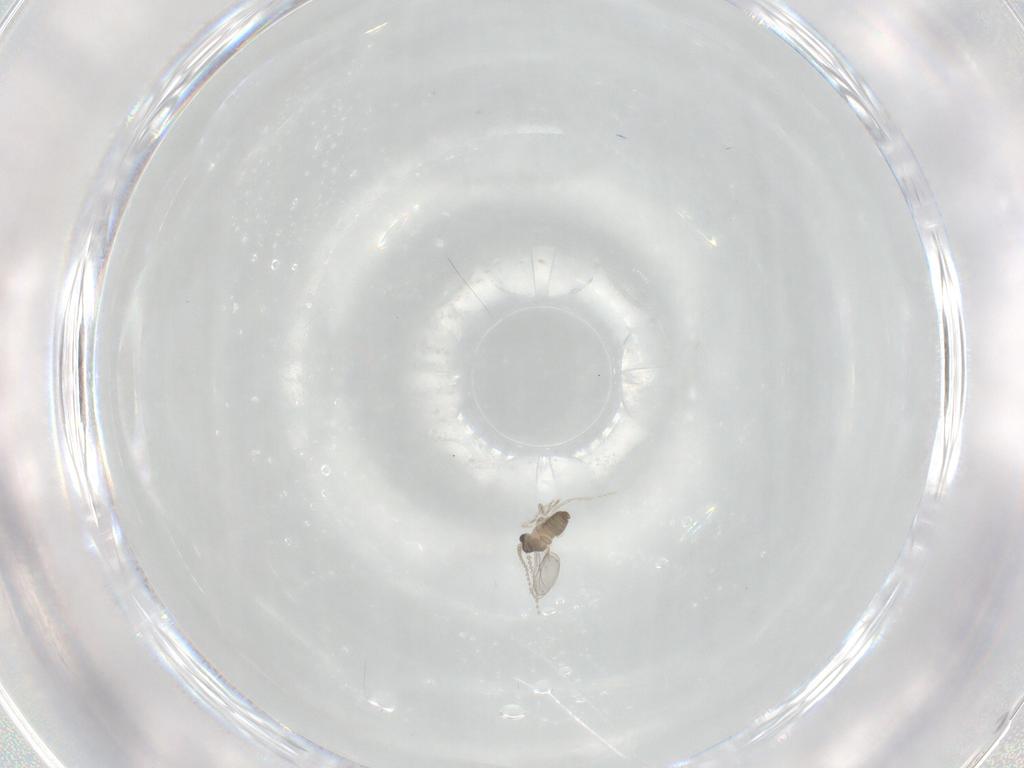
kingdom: Animalia
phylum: Arthropoda
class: Insecta
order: Diptera
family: Cecidomyiidae
